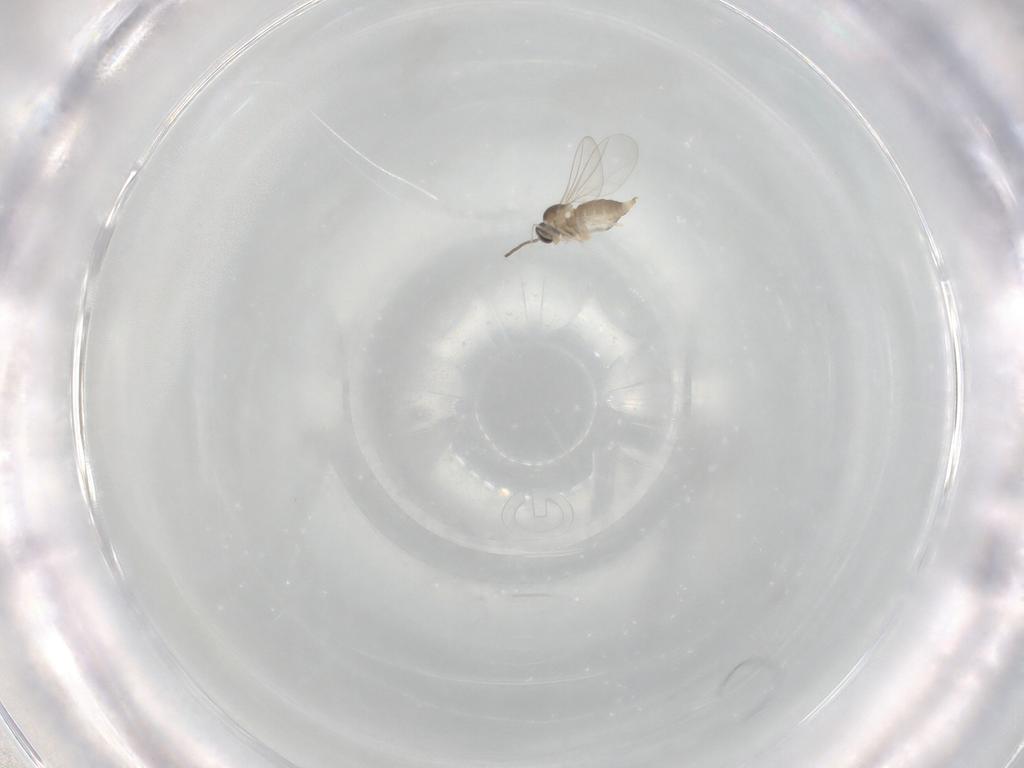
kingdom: Animalia
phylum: Arthropoda
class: Insecta
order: Diptera
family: Cecidomyiidae
